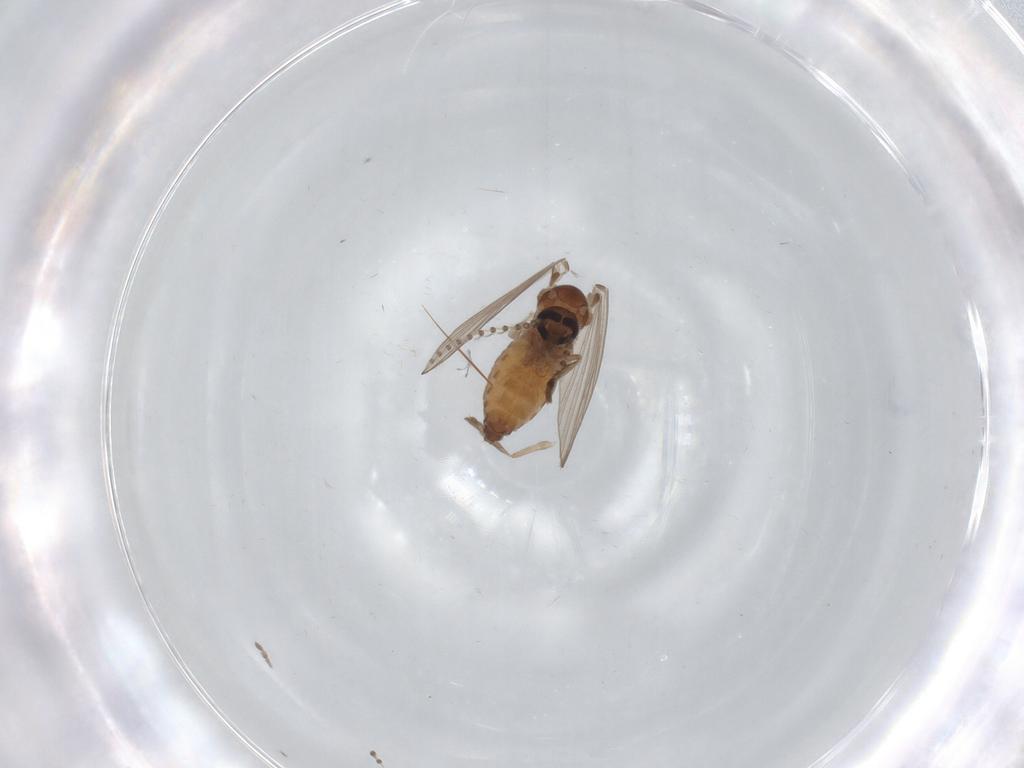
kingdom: Animalia
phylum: Arthropoda
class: Insecta
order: Diptera
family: Psychodidae
